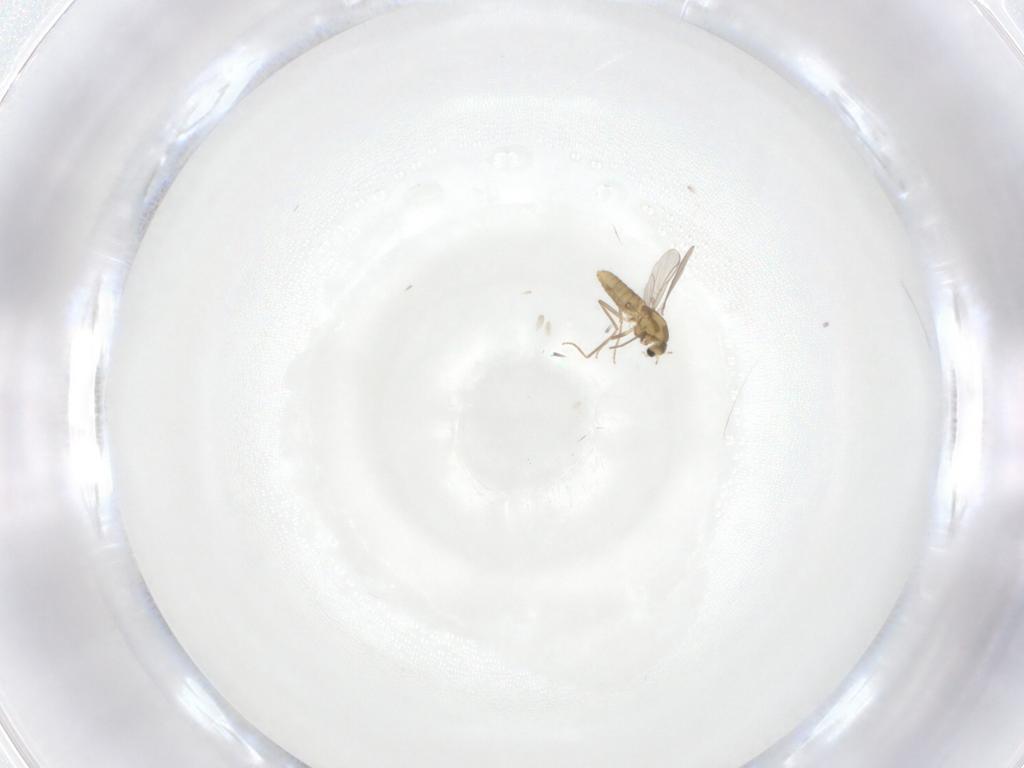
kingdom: Animalia
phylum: Arthropoda
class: Insecta
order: Diptera
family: Chironomidae
